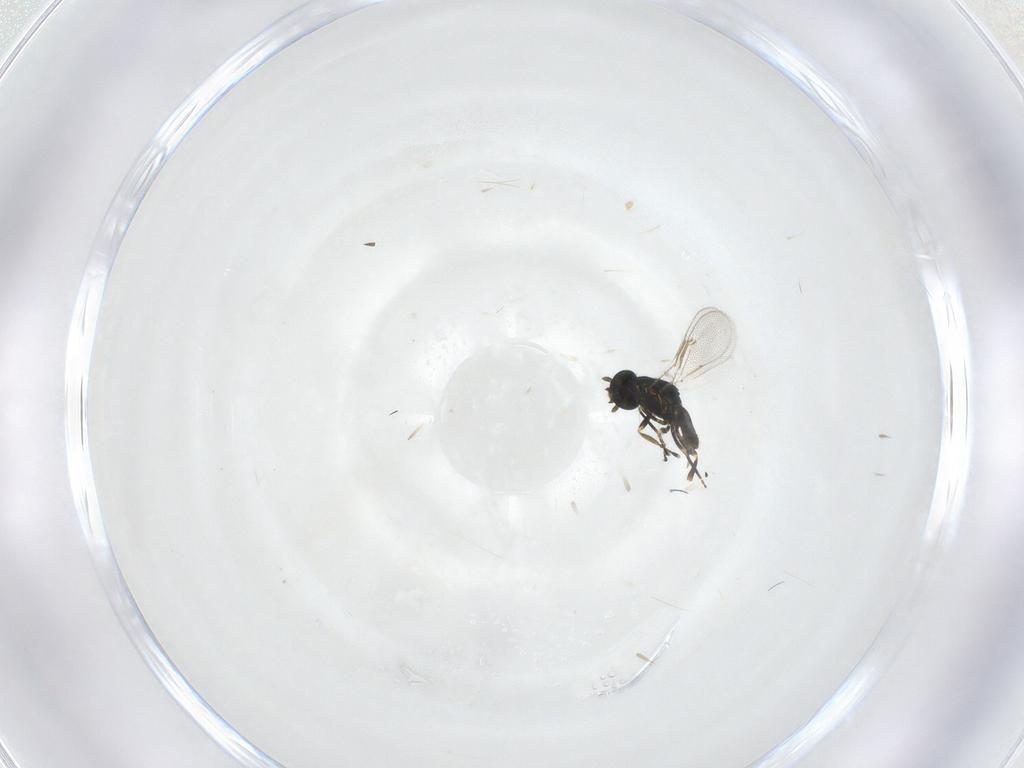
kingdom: Animalia
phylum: Arthropoda
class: Insecta
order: Hymenoptera
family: Eulophidae
